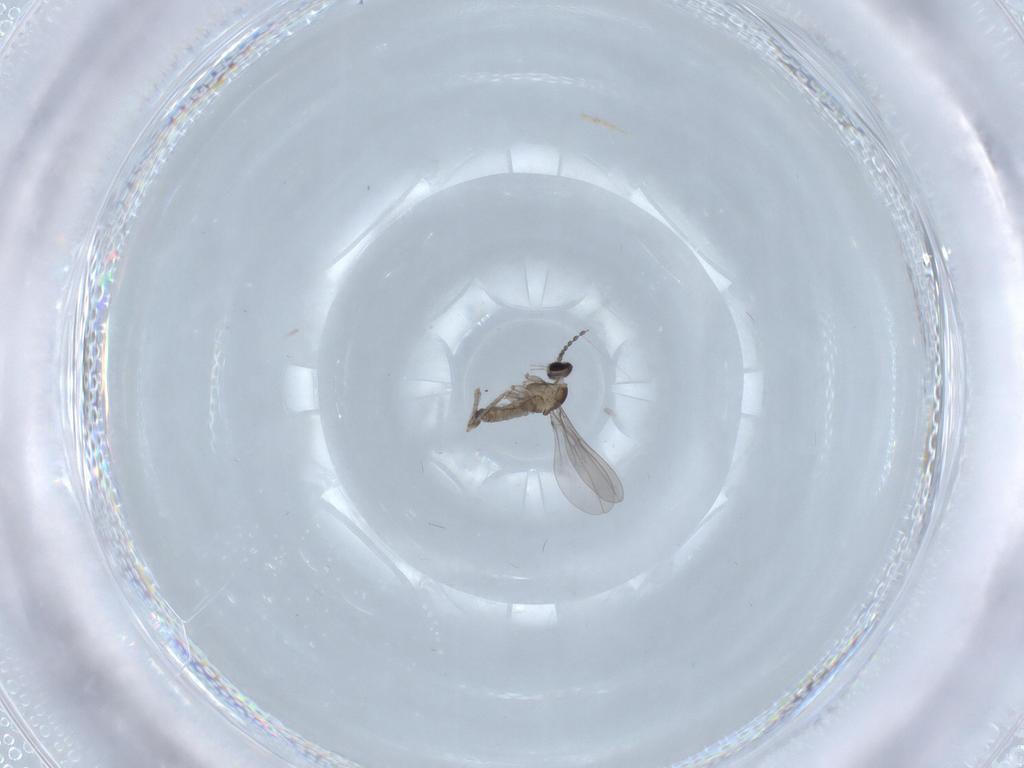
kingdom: Animalia
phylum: Arthropoda
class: Insecta
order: Diptera
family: Cecidomyiidae
